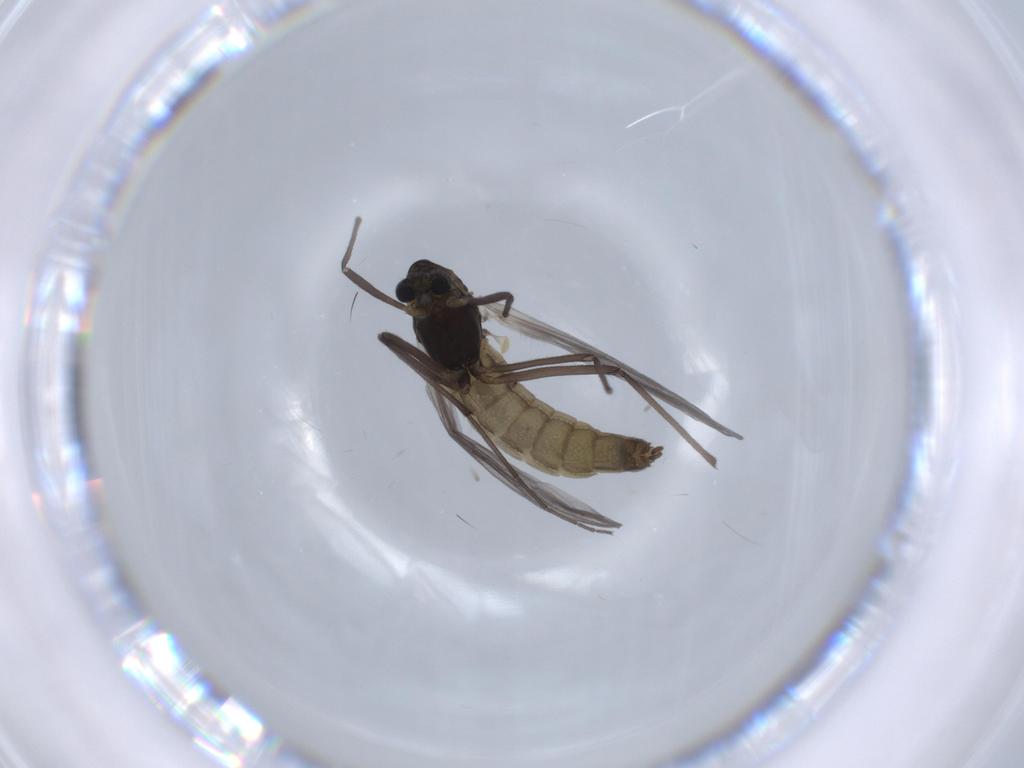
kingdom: Animalia
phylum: Arthropoda
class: Insecta
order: Diptera
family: Chironomidae
